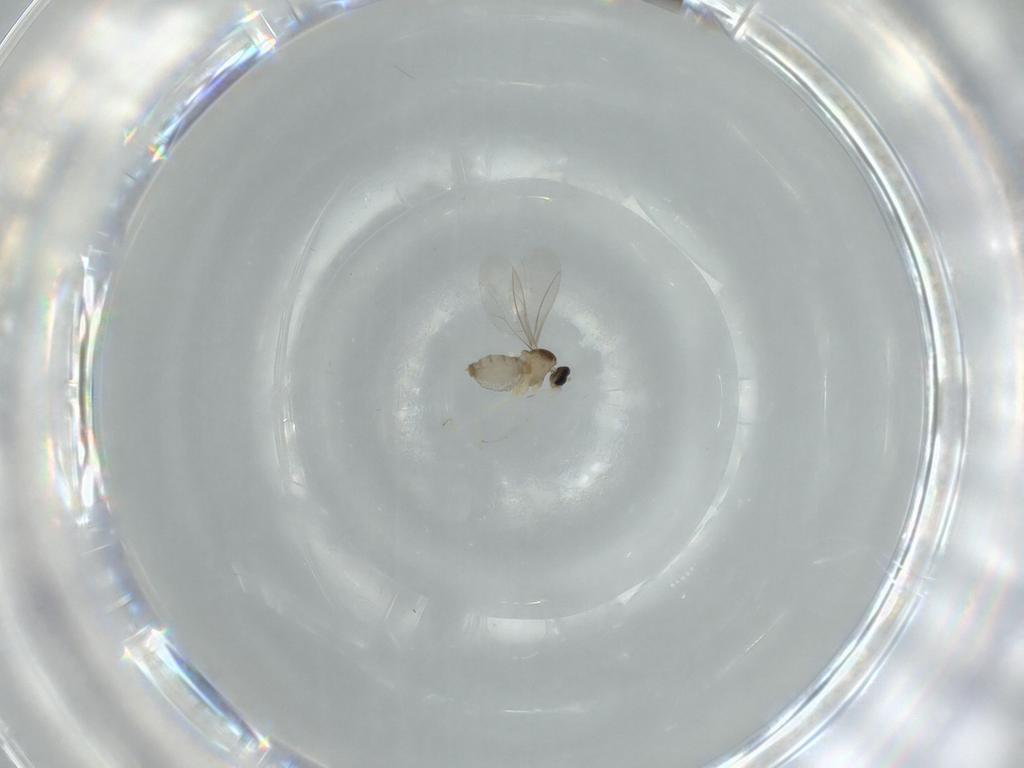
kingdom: Animalia
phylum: Arthropoda
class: Insecta
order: Diptera
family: Cecidomyiidae
